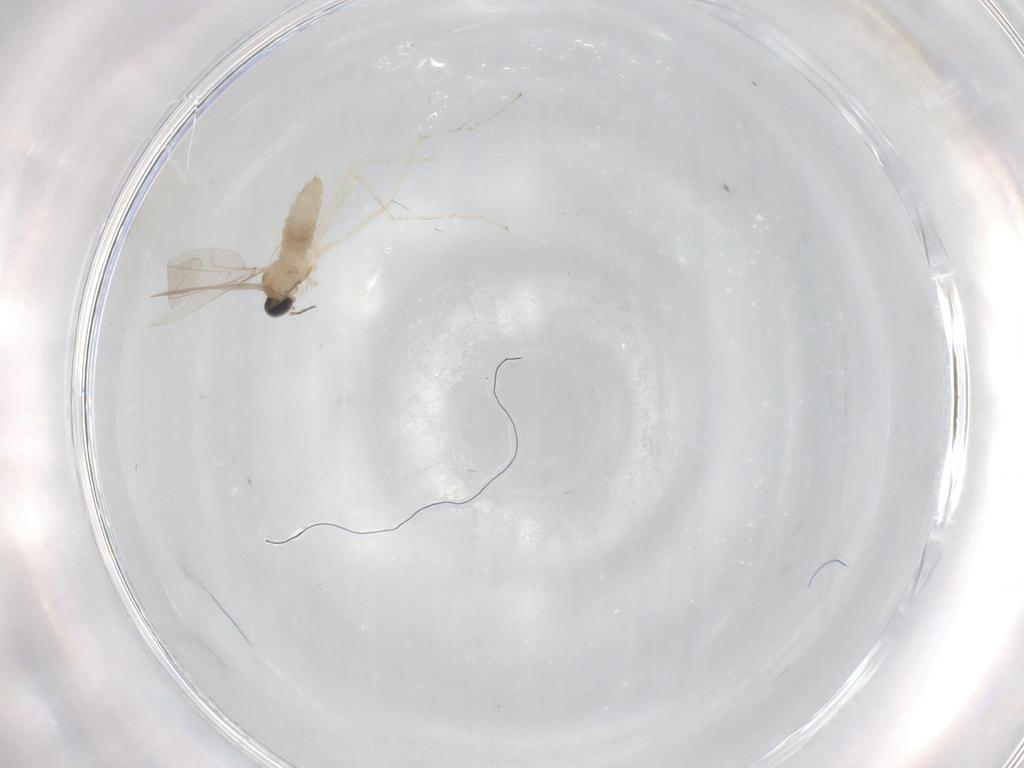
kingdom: Animalia
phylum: Arthropoda
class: Insecta
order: Diptera
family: Cecidomyiidae
